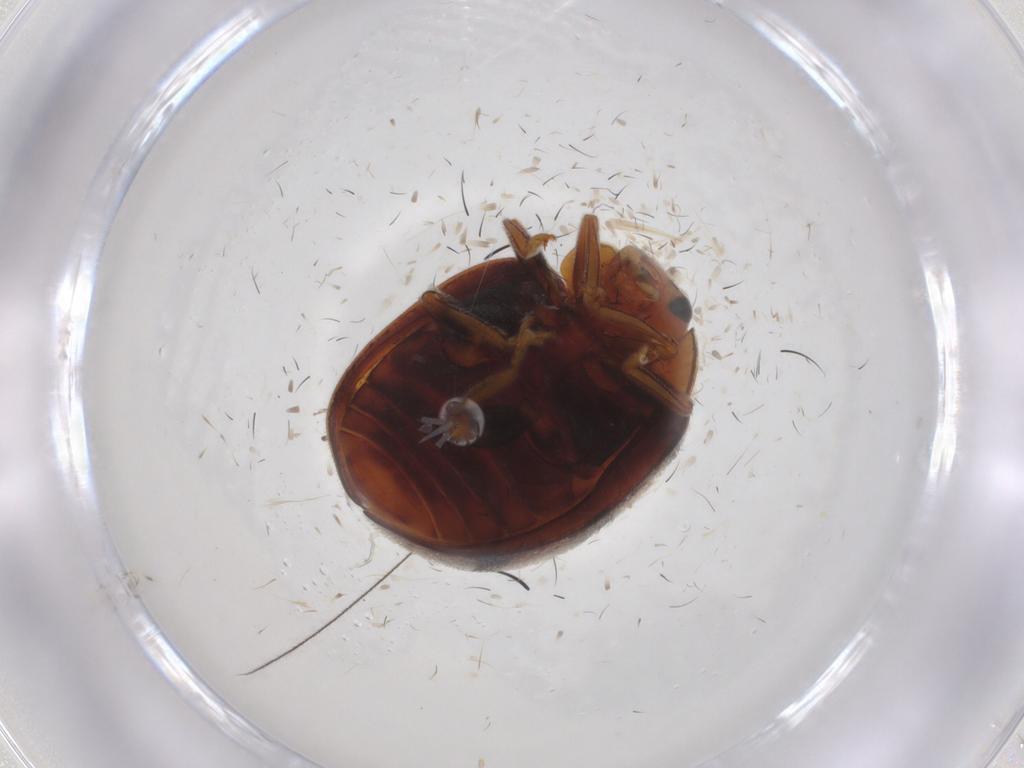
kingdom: Animalia
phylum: Arthropoda
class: Insecta
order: Coleoptera
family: Coccinellidae
